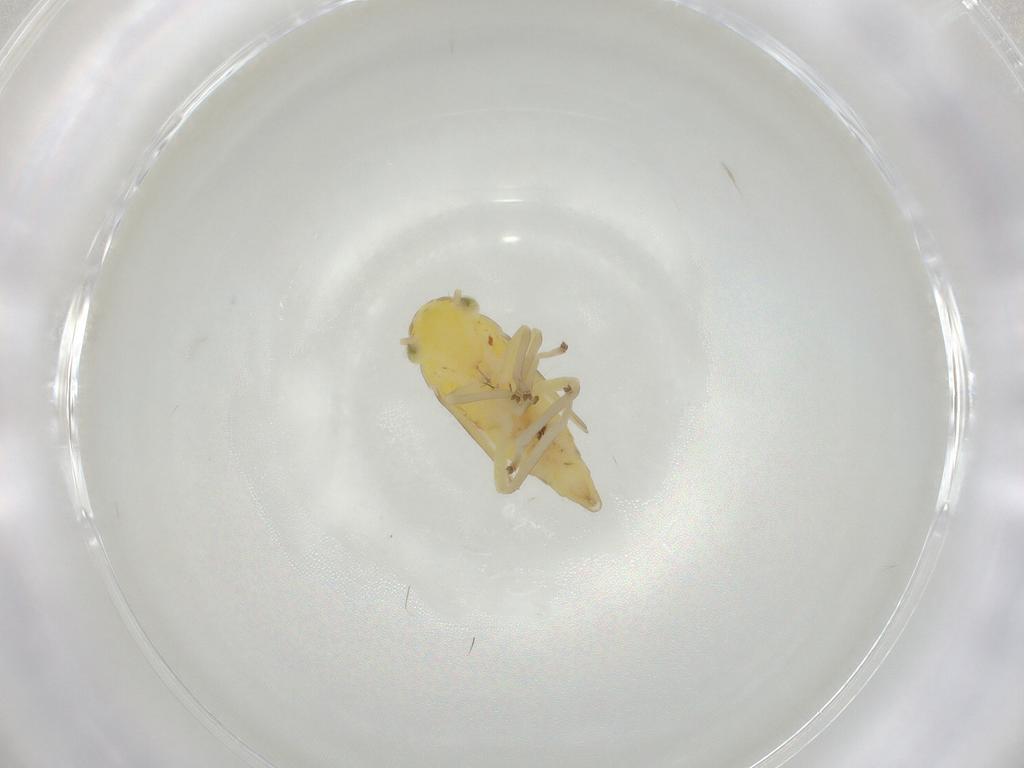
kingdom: Animalia
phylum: Arthropoda
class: Insecta
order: Hemiptera
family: Cicadellidae
